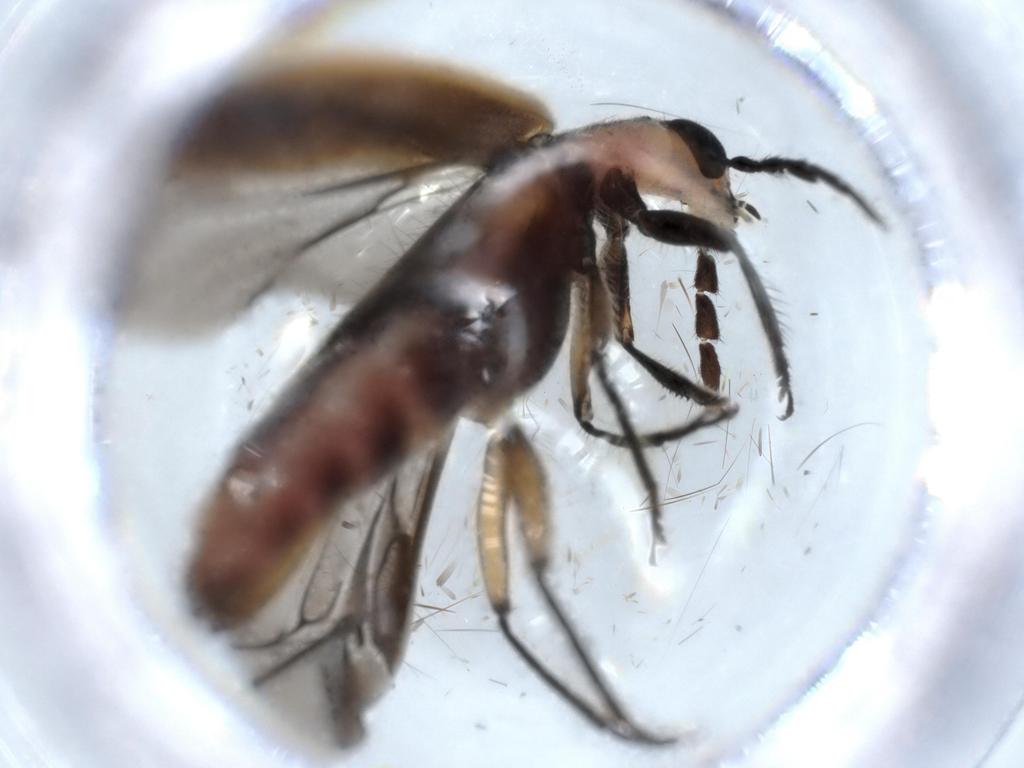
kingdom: Animalia
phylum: Arthropoda
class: Insecta
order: Coleoptera
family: Cleridae
